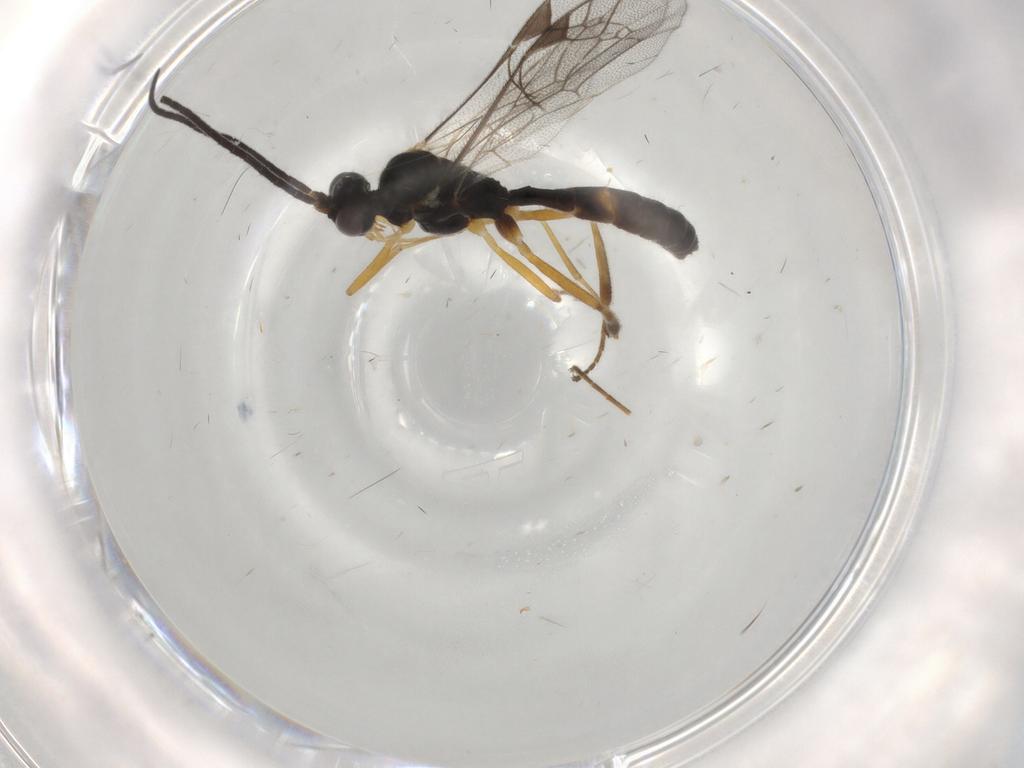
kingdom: Animalia
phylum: Arthropoda
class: Insecta
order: Hymenoptera
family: Ichneumonidae
